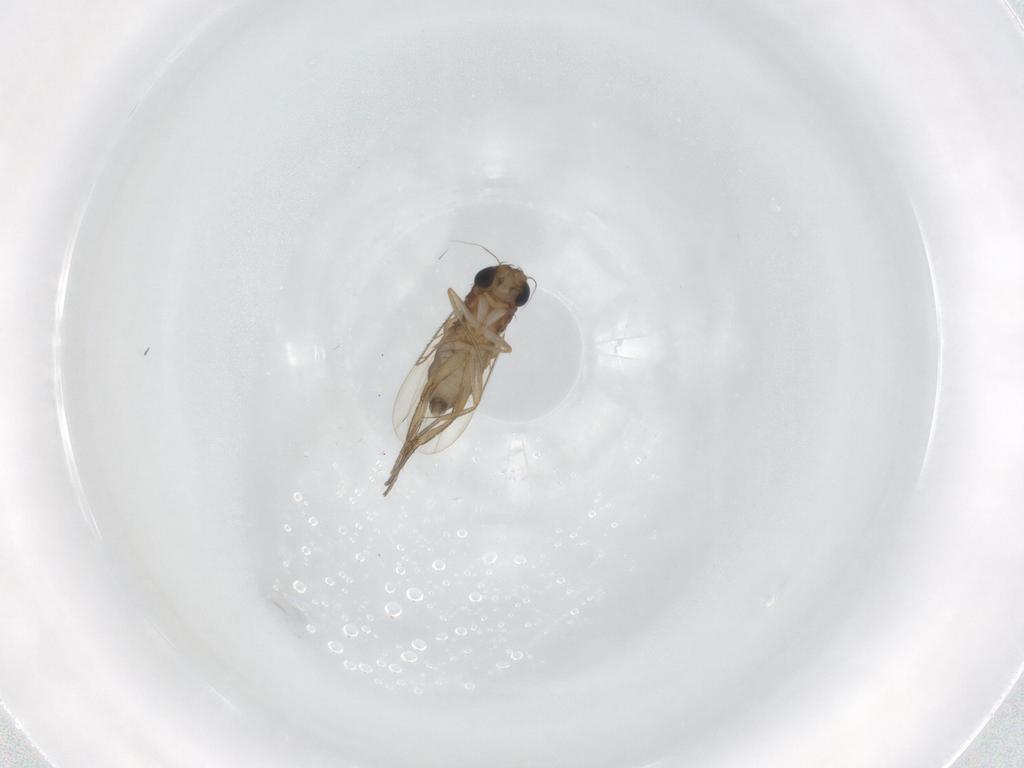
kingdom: Animalia
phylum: Arthropoda
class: Insecta
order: Diptera
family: Phoridae
